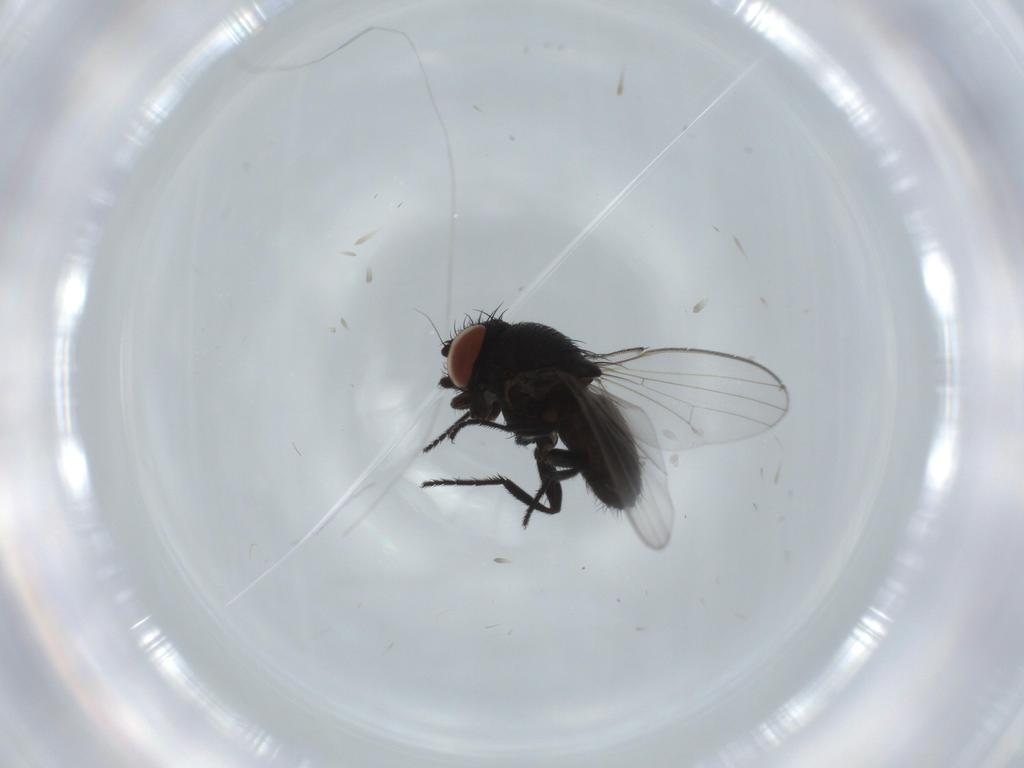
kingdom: Animalia
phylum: Arthropoda
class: Insecta
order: Diptera
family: Milichiidae
